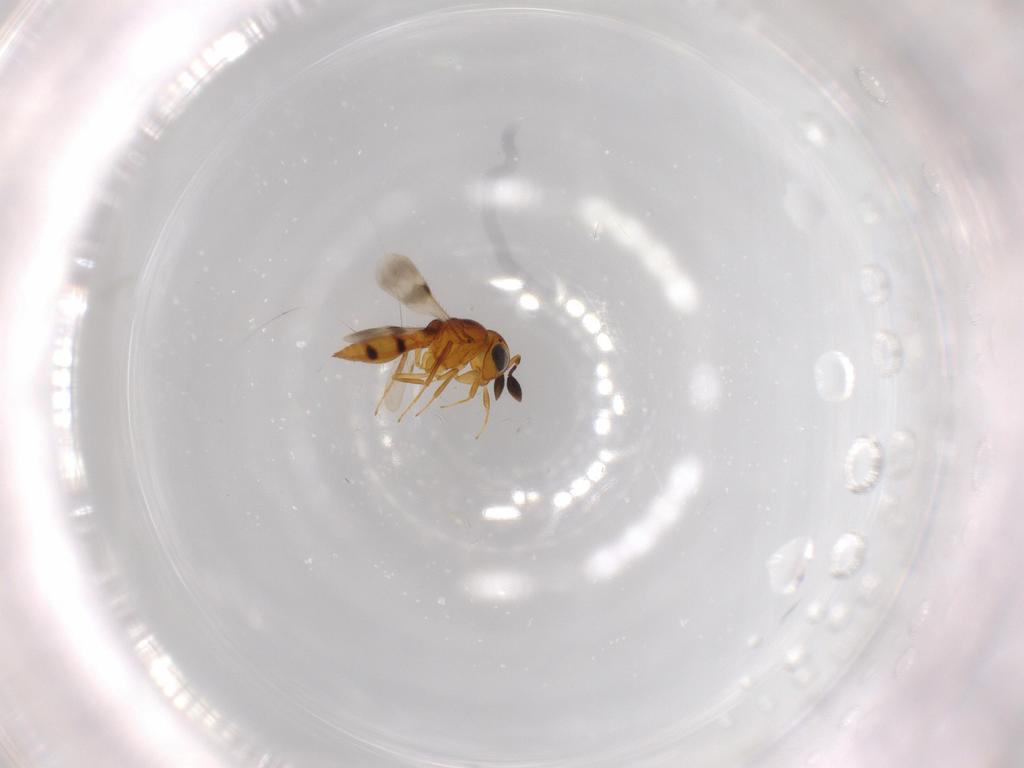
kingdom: Animalia
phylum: Arthropoda
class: Insecta
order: Hymenoptera
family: Scelionidae
